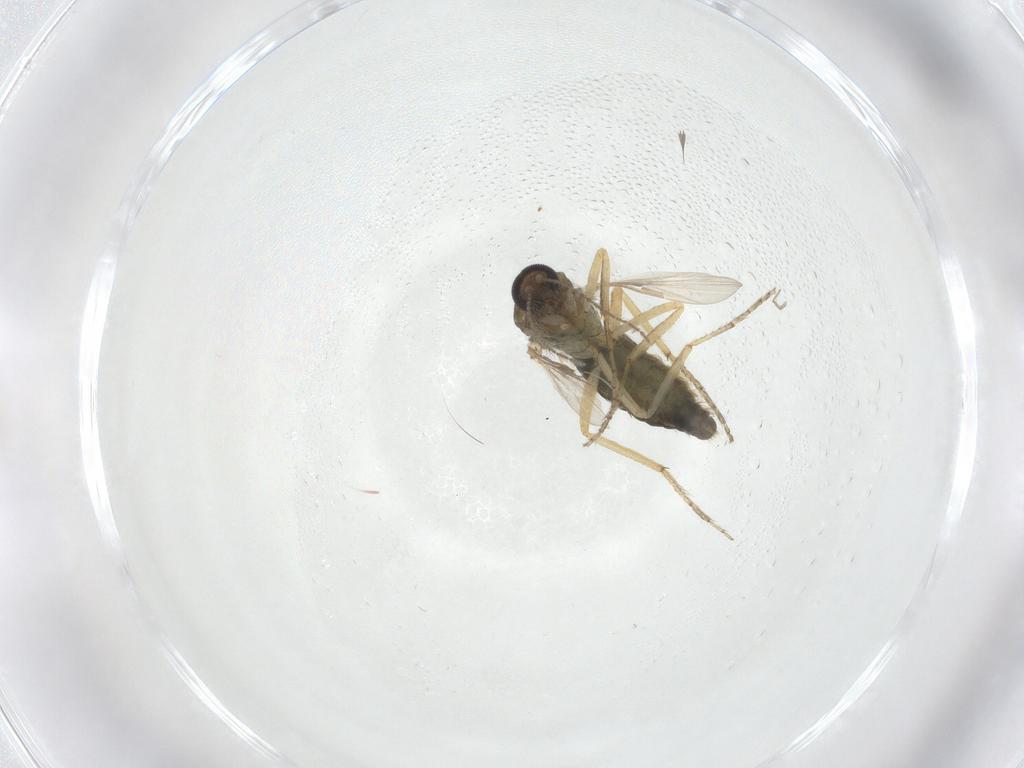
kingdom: Animalia
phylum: Arthropoda
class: Insecta
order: Diptera
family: Ceratopogonidae
